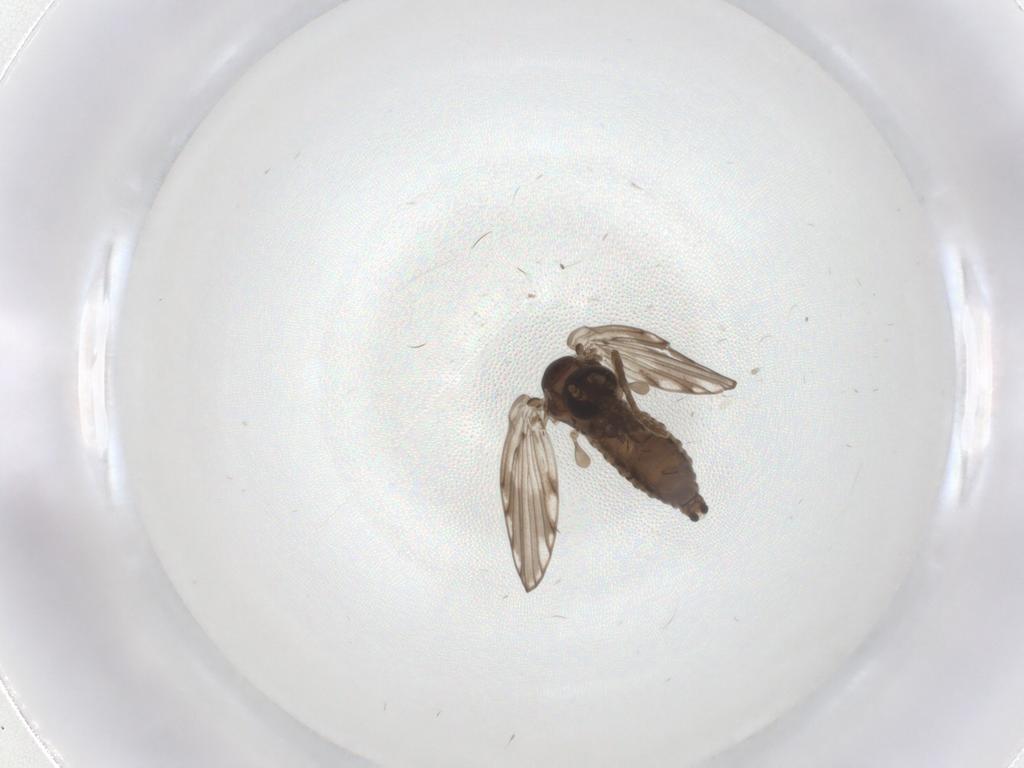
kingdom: Animalia
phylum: Arthropoda
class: Insecta
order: Diptera
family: Psychodidae
